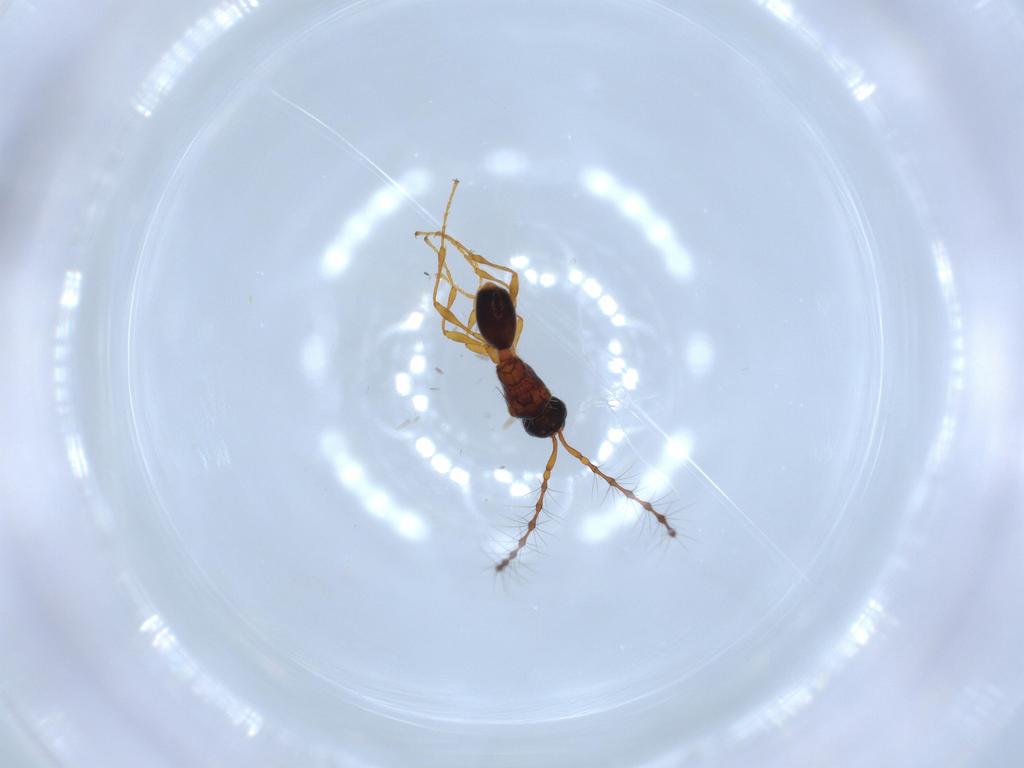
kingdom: Animalia
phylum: Arthropoda
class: Insecta
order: Hymenoptera
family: Diapriidae
